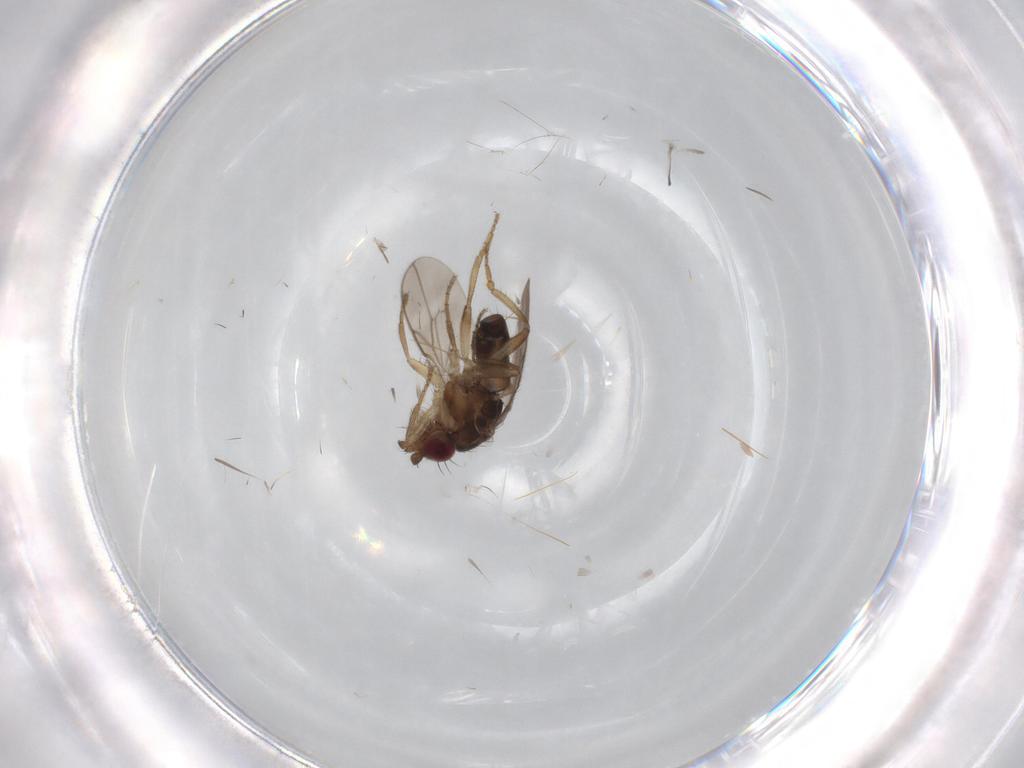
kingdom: Animalia
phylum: Arthropoda
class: Insecta
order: Diptera
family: Sphaeroceridae
